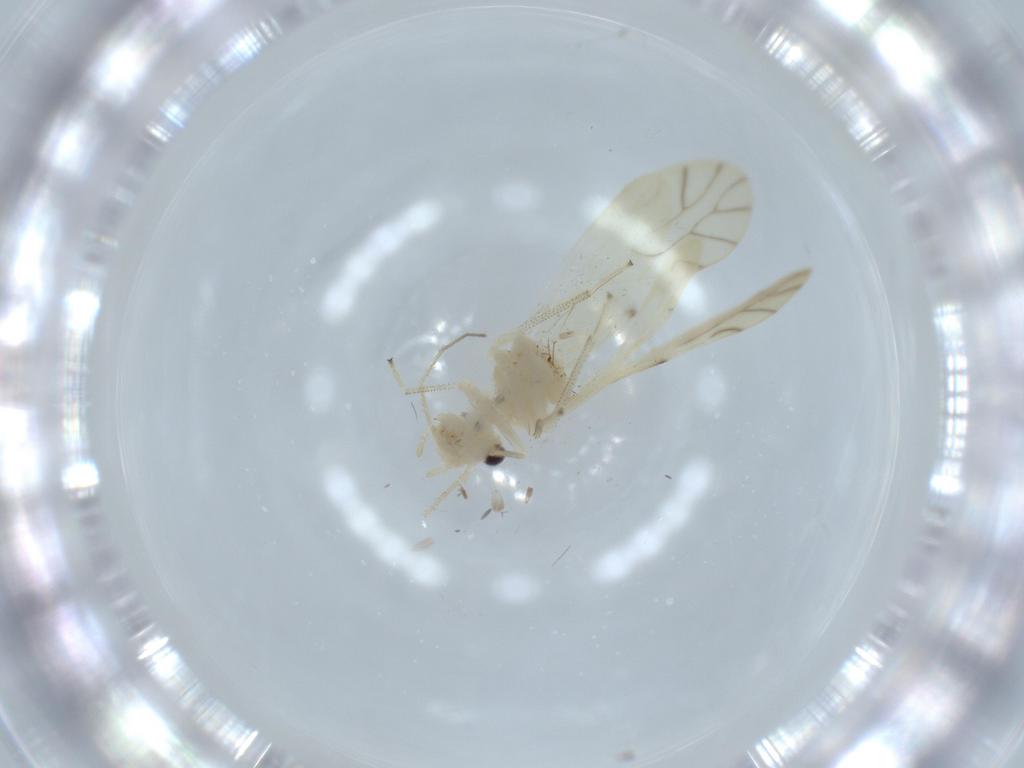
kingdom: Animalia
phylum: Arthropoda
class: Insecta
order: Psocodea
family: Caeciliusidae
